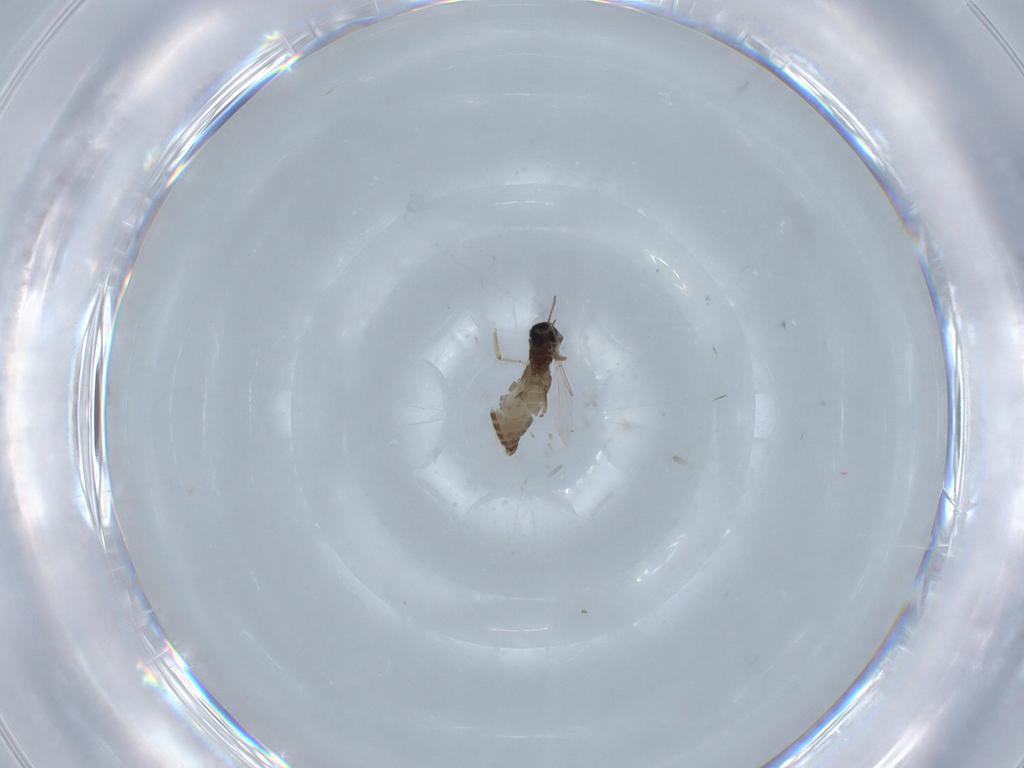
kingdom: Animalia
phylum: Arthropoda
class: Insecta
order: Diptera
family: Ceratopogonidae
